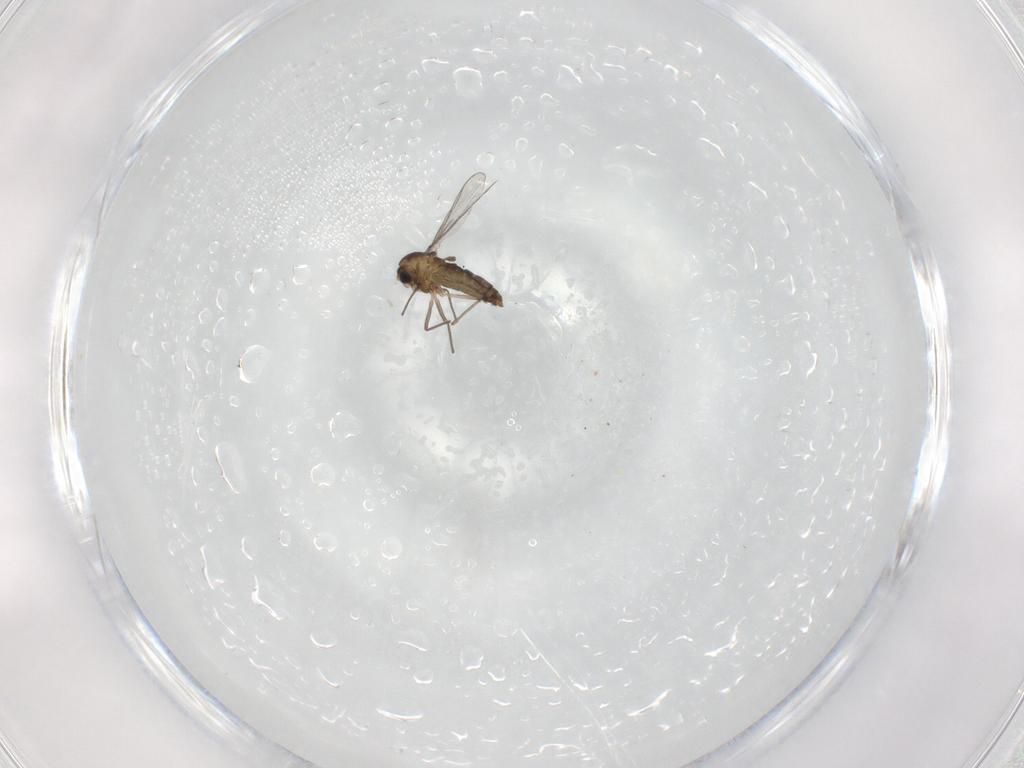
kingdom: Animalia
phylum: Arthropoda
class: Insecta
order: Diptera
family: Chironomidae
